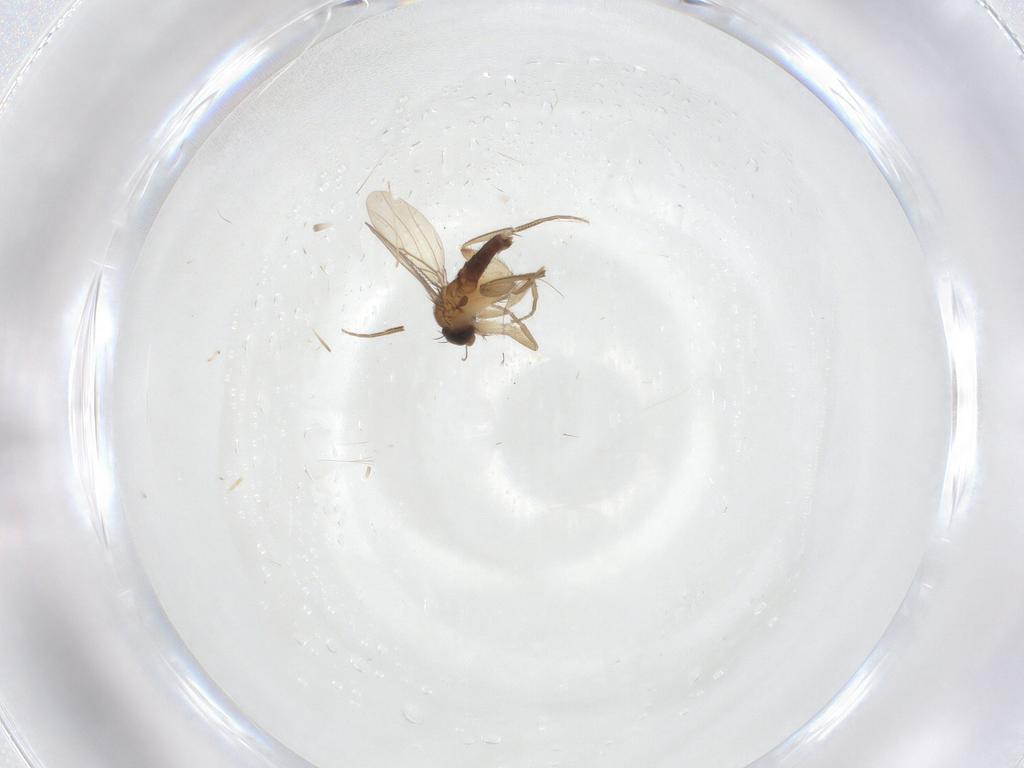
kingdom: Animalia
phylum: Arthropoda
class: Insecta
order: Diptera
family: Phoridae
